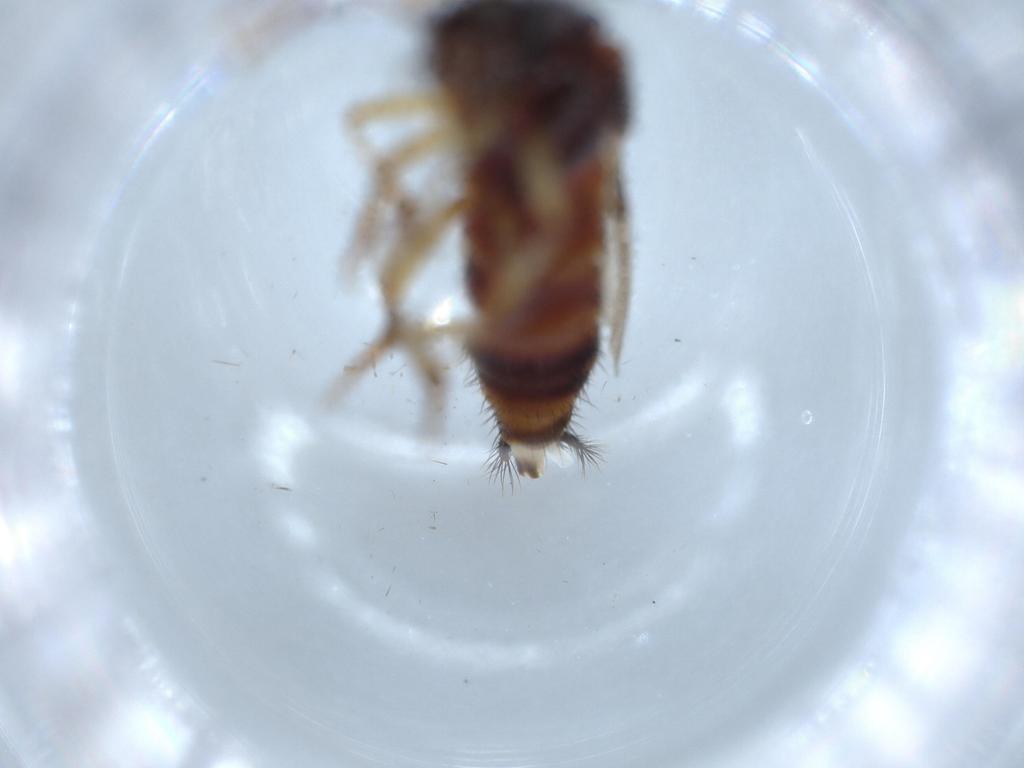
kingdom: Animalia
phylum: Arthropoda
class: Insecta
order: Coleoptera
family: Staphylinidae
